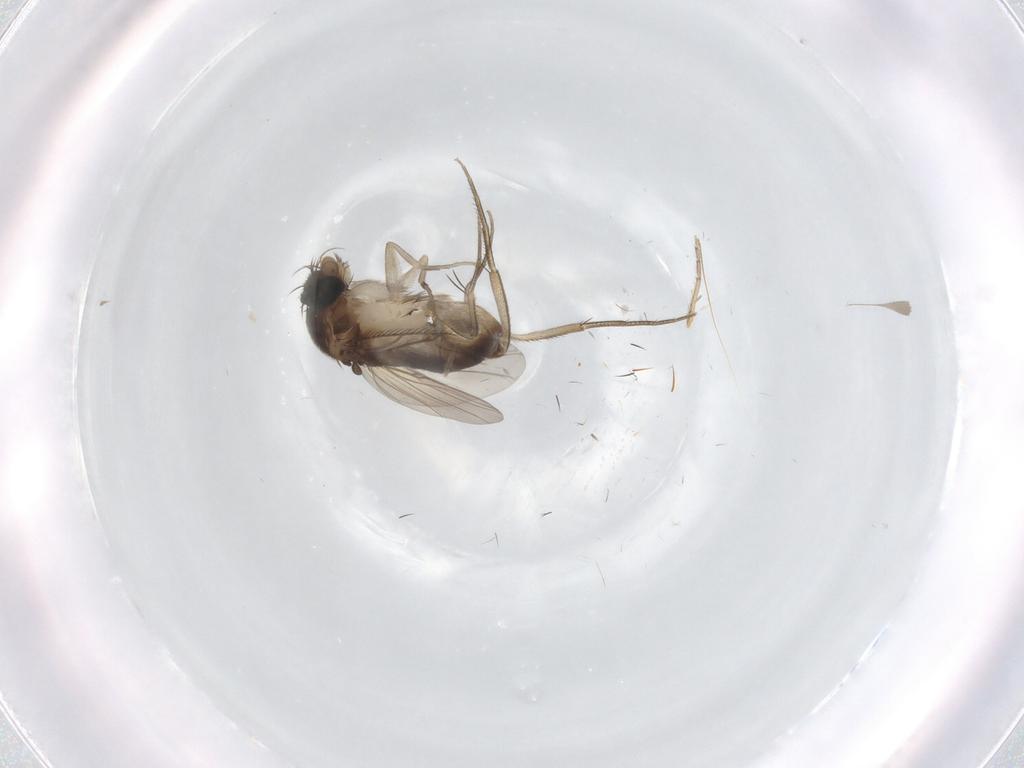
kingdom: Animalia
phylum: Arthropoda
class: Insecta
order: Diptera
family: Phoridae
